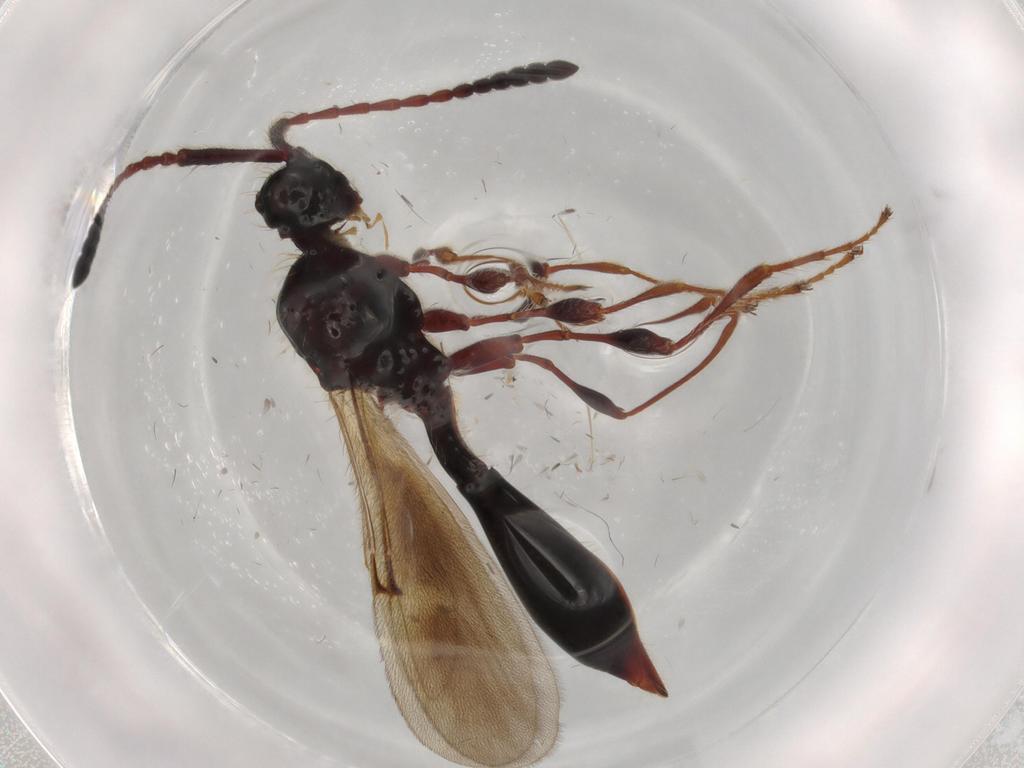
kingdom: Animalia
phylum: Arthropoda
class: Insecta
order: Hymenoptera
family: Diapriidae
